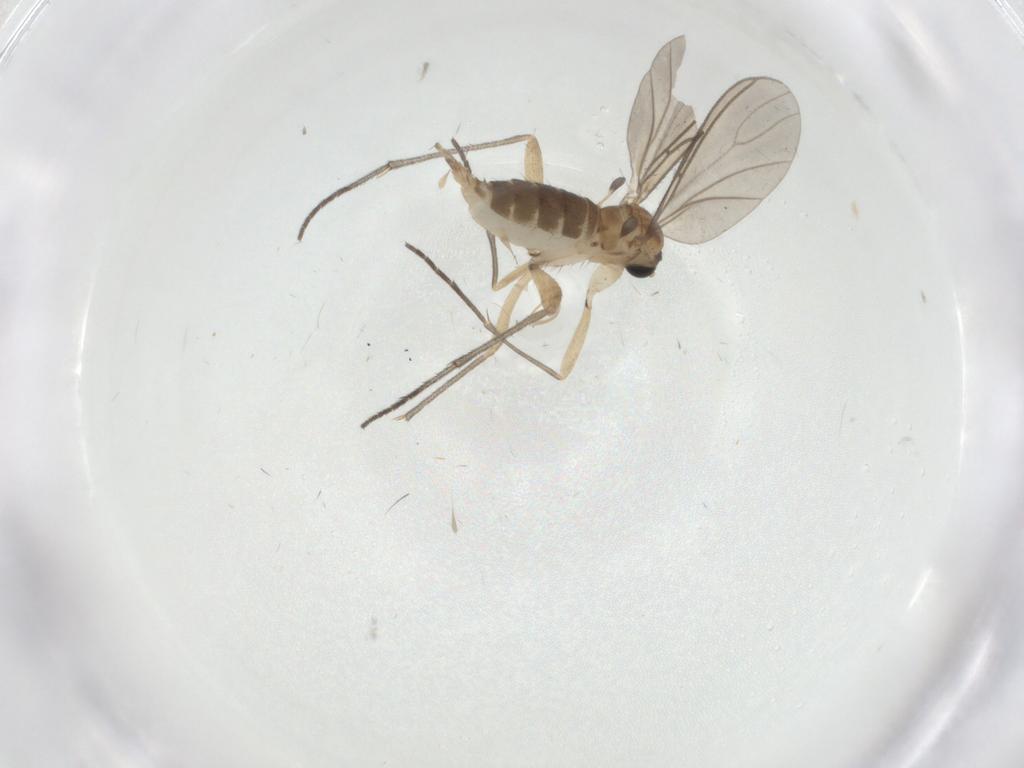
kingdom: Animalia
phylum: Arthropoda
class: Insecta
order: Diptera
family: Sciaridae
